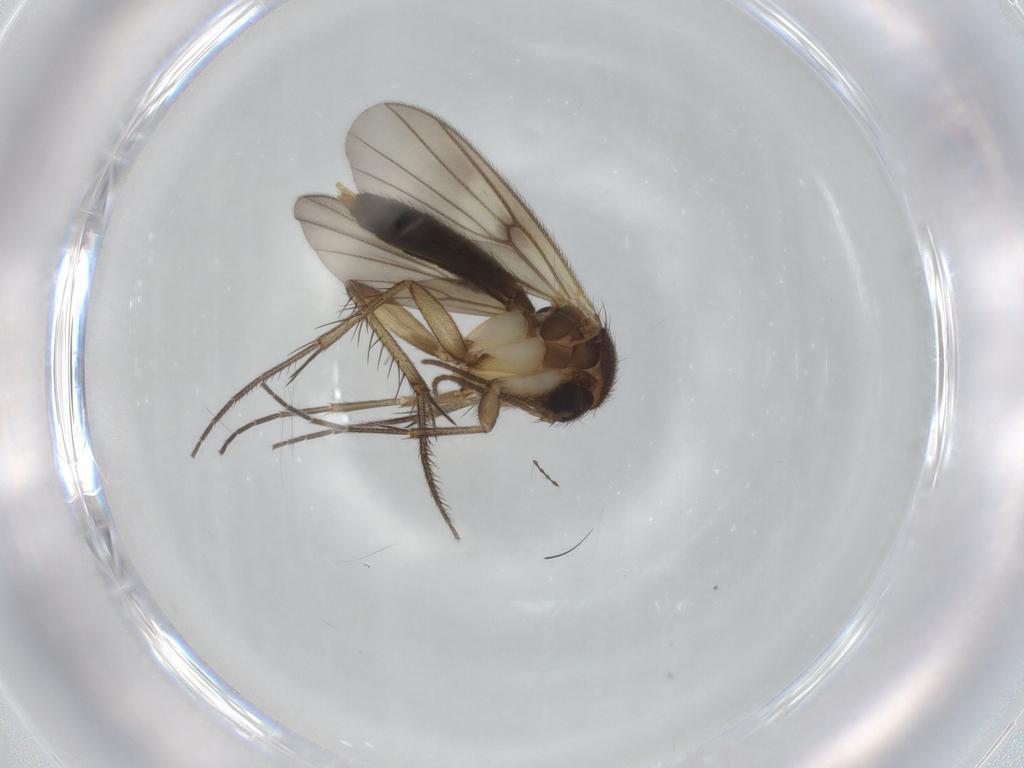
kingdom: Animalia
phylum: Arthropoda
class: Insecta
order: Diptera
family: Mycetophilidae
